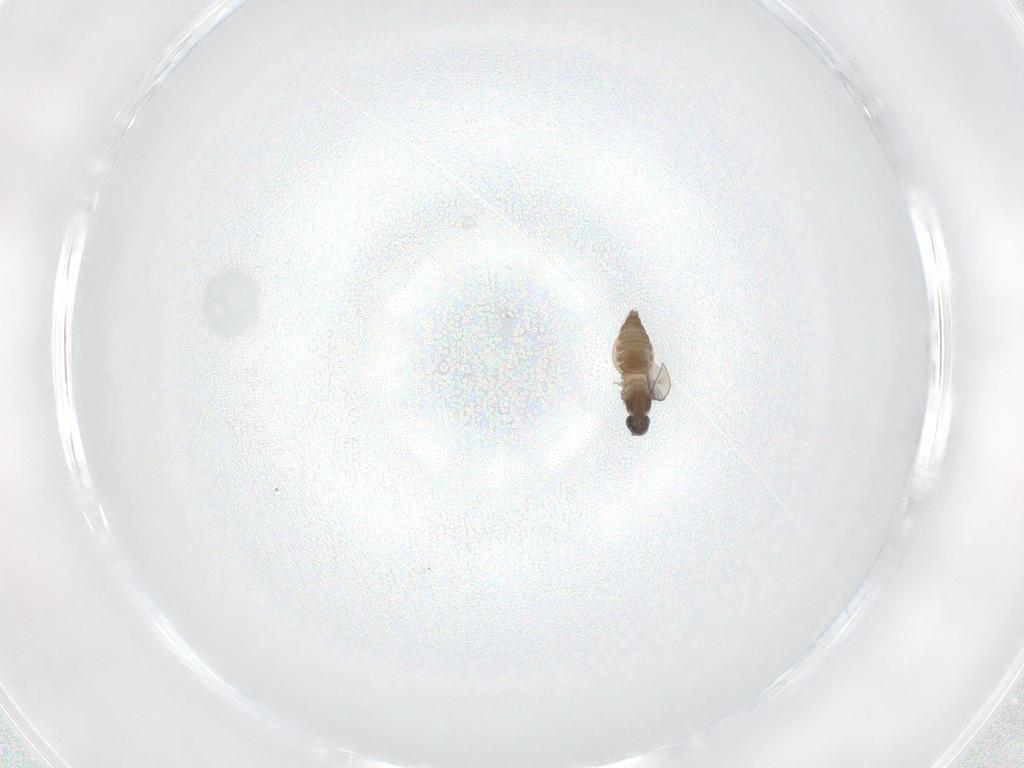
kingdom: Animalia
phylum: Arthropoda
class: Insecta
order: Diptera
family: Cecidomyiidae
